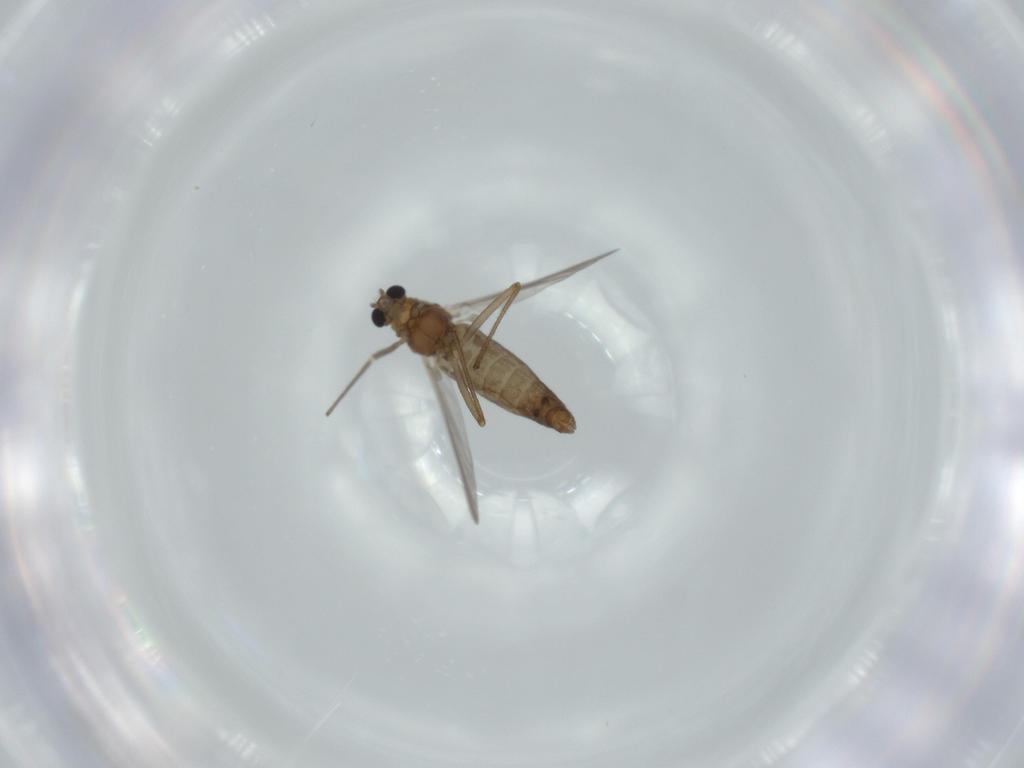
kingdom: Animalia
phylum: Arthropoda
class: Insecta
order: Diptera
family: Chironomidae
